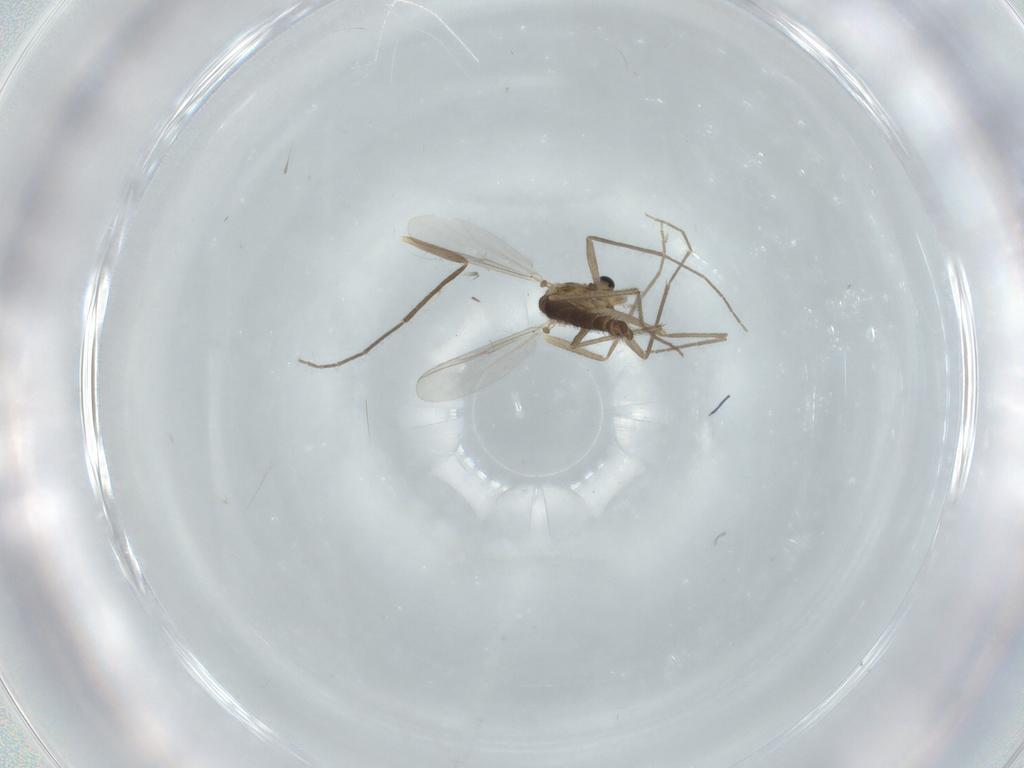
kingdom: Animalia
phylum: Arthropoda
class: Insecta
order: Diptera
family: Chironomidae
